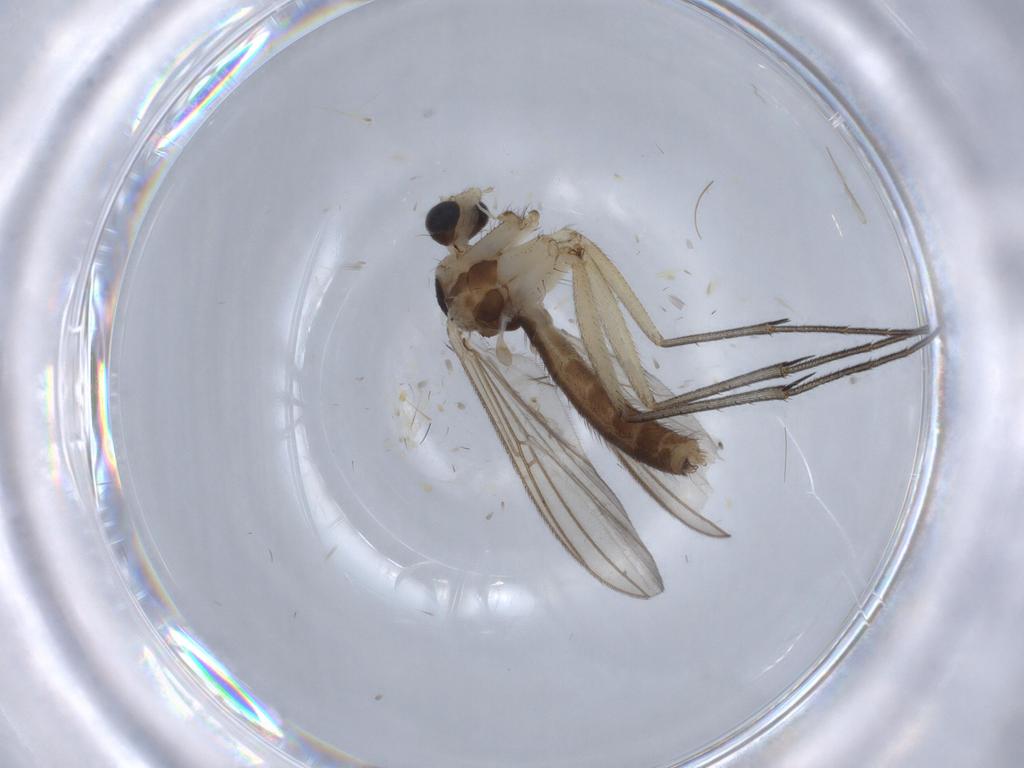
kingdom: Animalia
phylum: Arthropoda
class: Insecta
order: Diptera
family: Mycetophilidae
